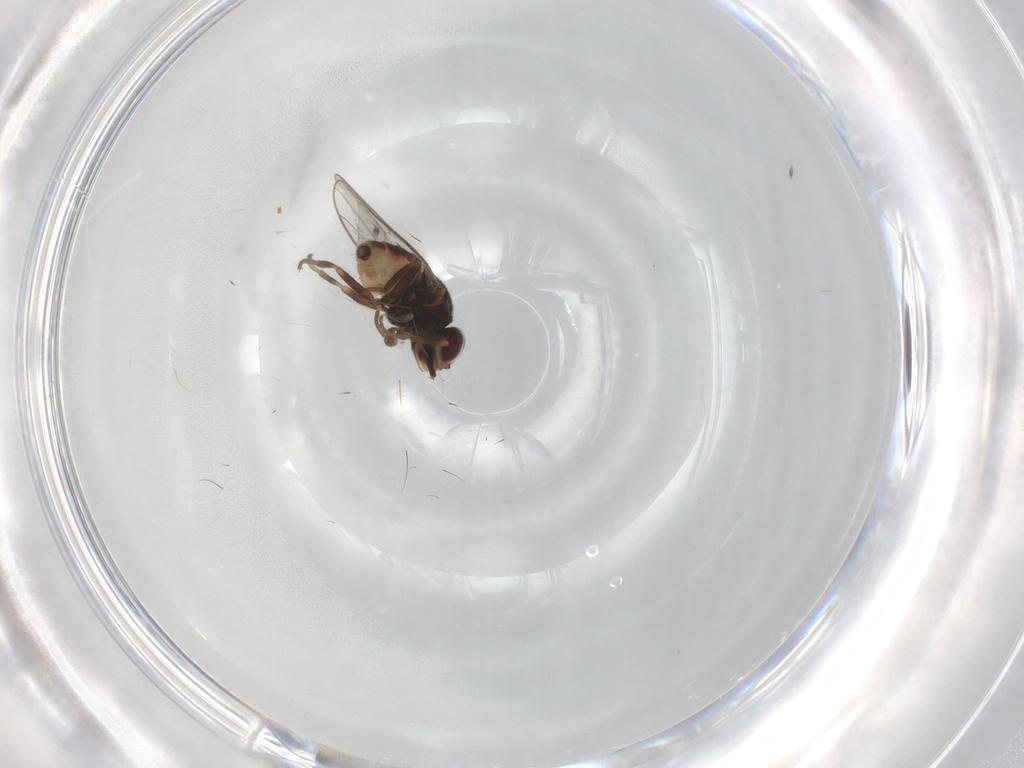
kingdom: Animalia
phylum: Arthropoda
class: Insecta
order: Diptera
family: Chloropidae
